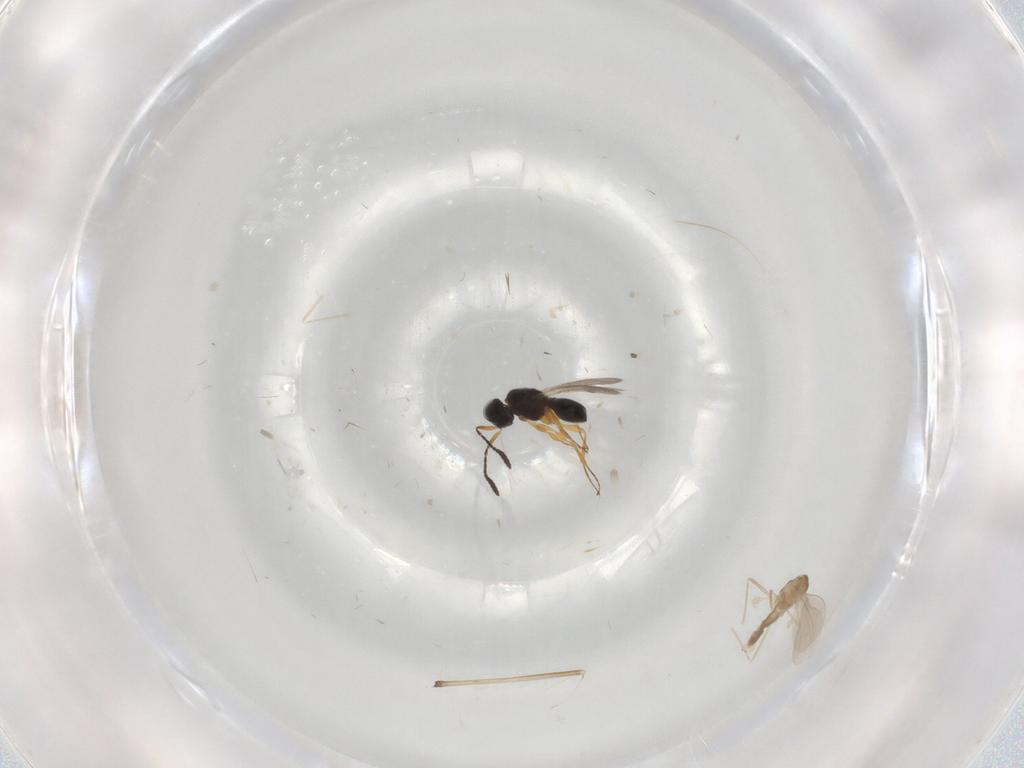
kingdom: Animalia
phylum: Arthropoda
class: Insecta
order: Hymenoptera
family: Scelionidae
